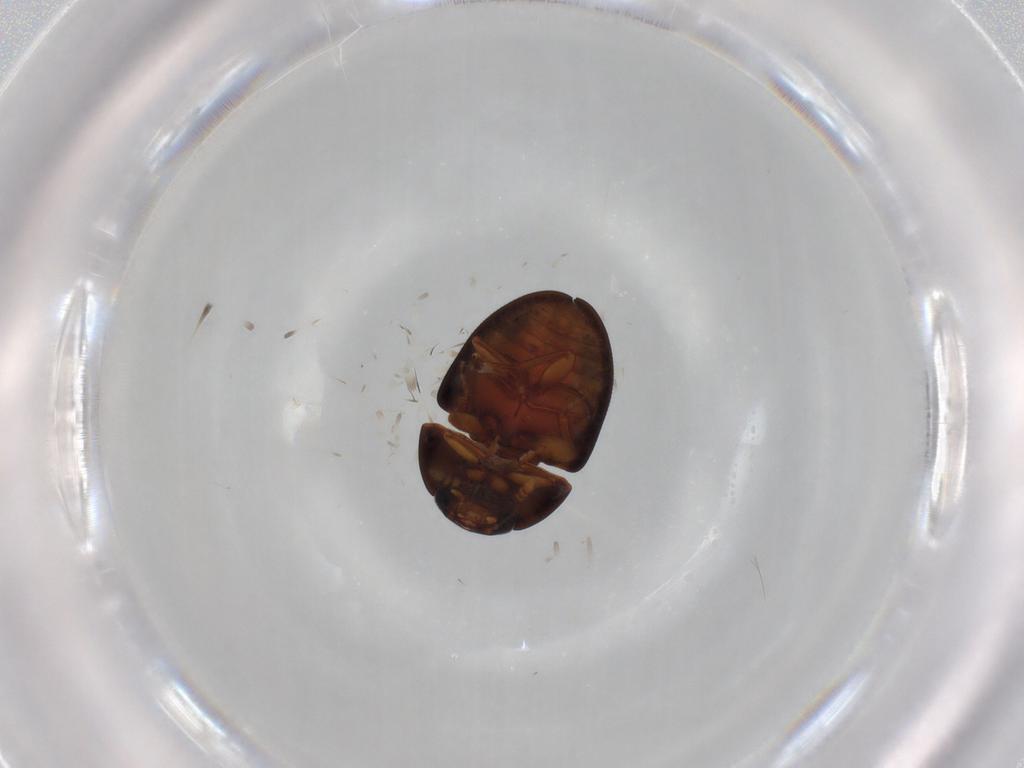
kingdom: Animalia
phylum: Arthropoda
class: Insecta
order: Coleoptera
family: Phalacridae
